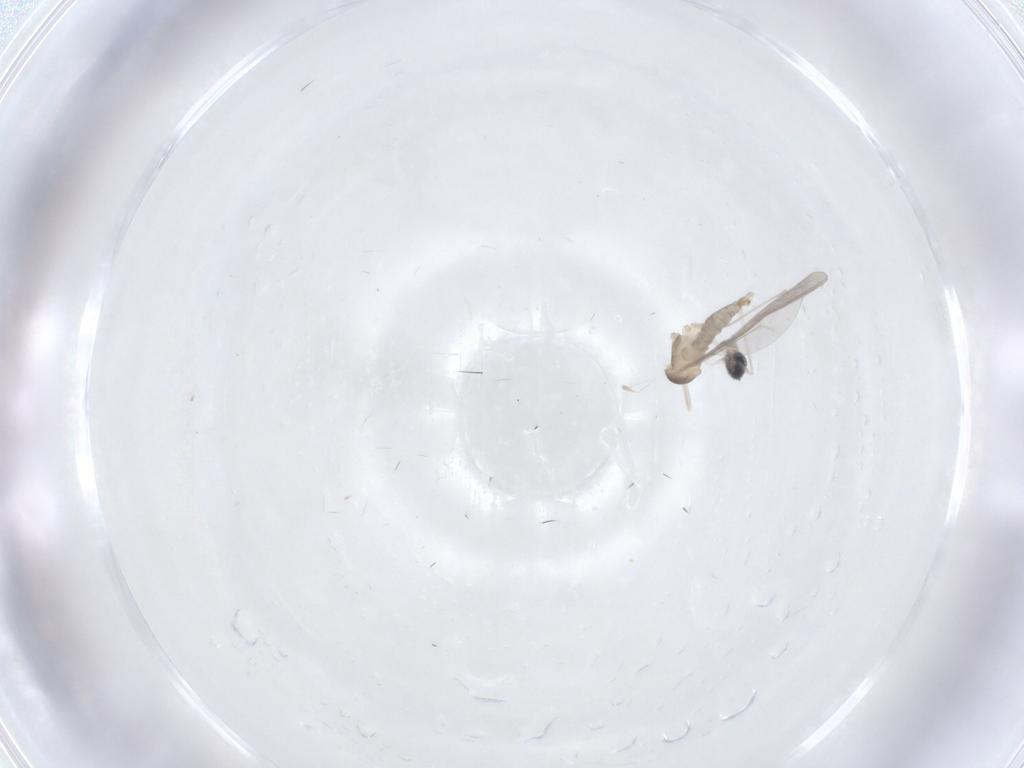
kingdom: Animalia
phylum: Arthropoda
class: Insecta
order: Diptera
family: Cecidomyiidae
